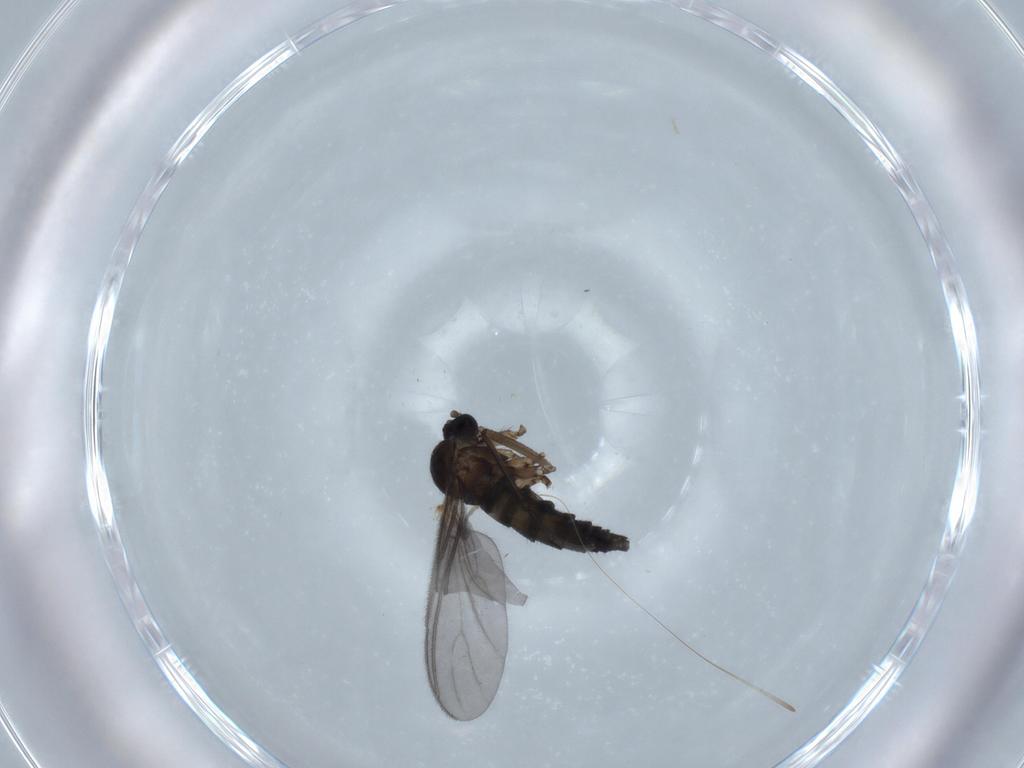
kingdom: Animalia
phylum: Arthropoda
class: Insecta
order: Diptera
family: Sciaridae
